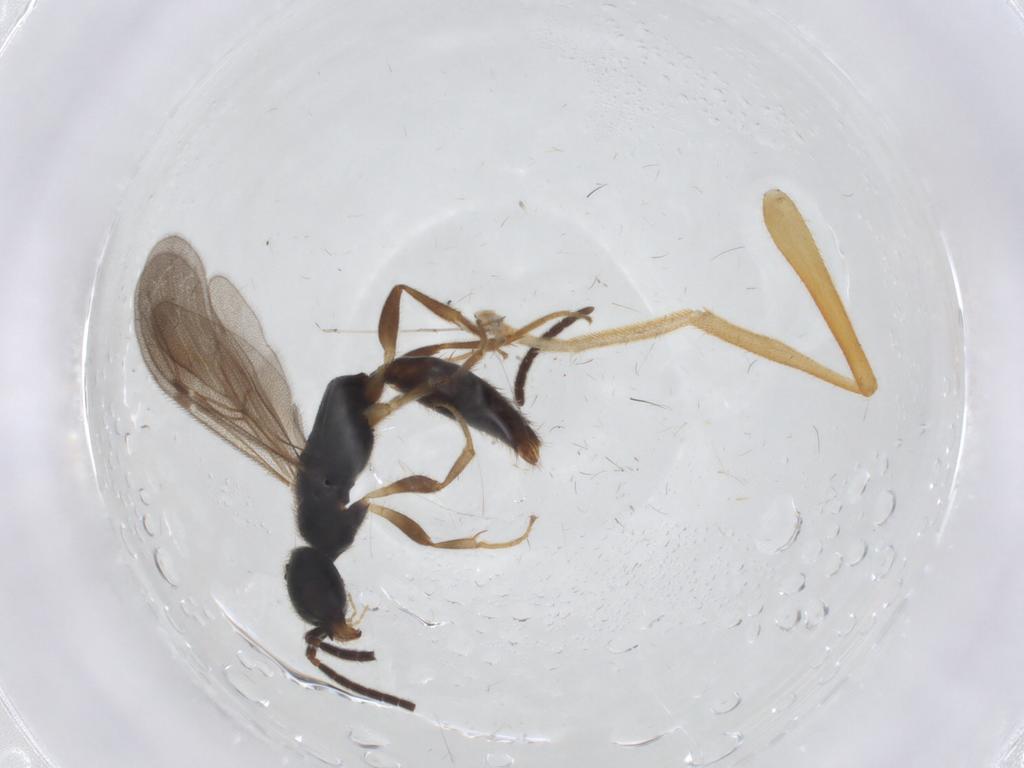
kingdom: Animalia
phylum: Arthropoda
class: Insecta
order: Hymenoptera
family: Bethylidae
